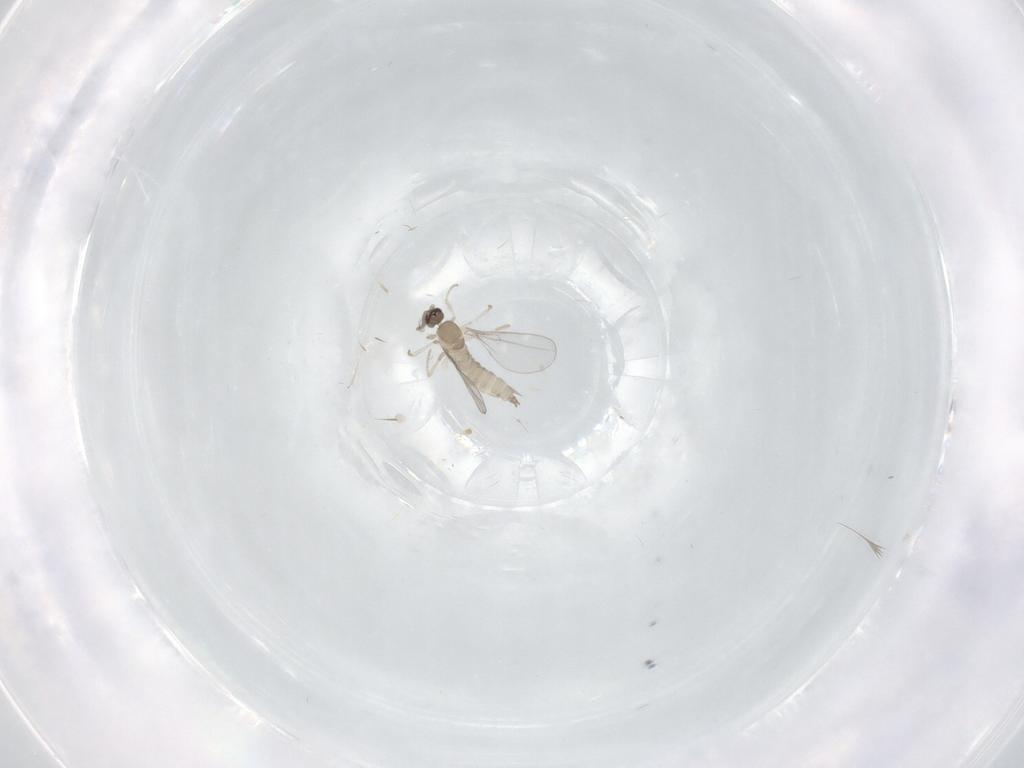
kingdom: Animalia
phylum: Arthropoda
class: Insecta
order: Diptera
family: Cecidomyiidae
